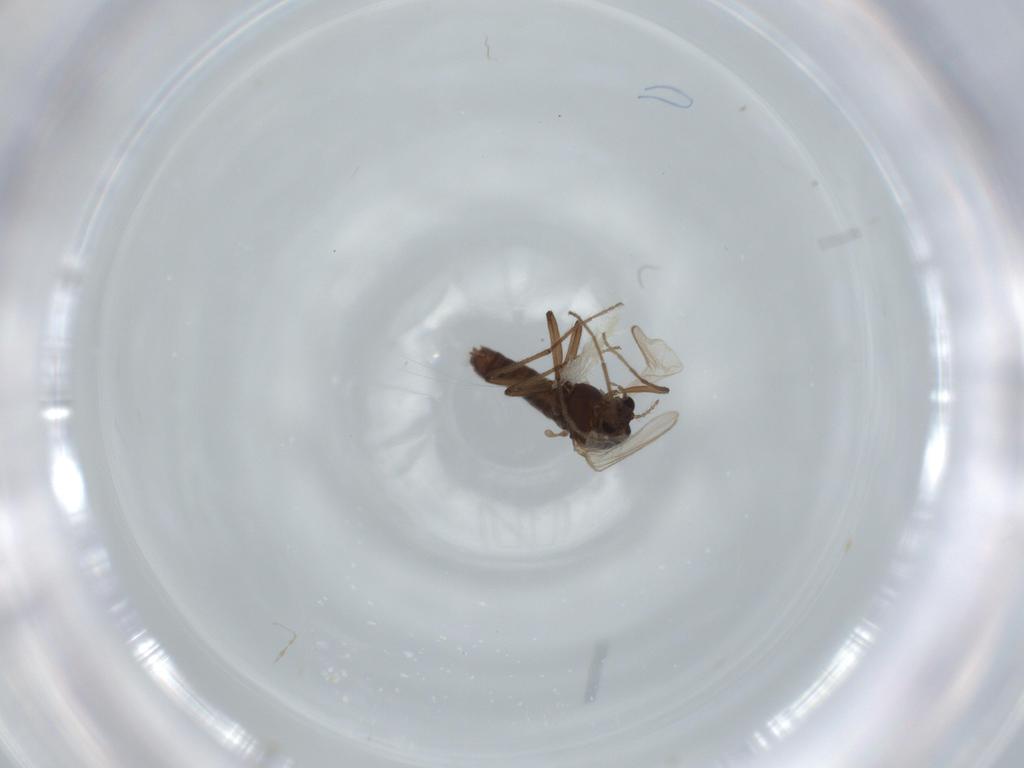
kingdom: Animalia
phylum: Arthropoda
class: Insecta
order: Diptera
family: Chironomidae
